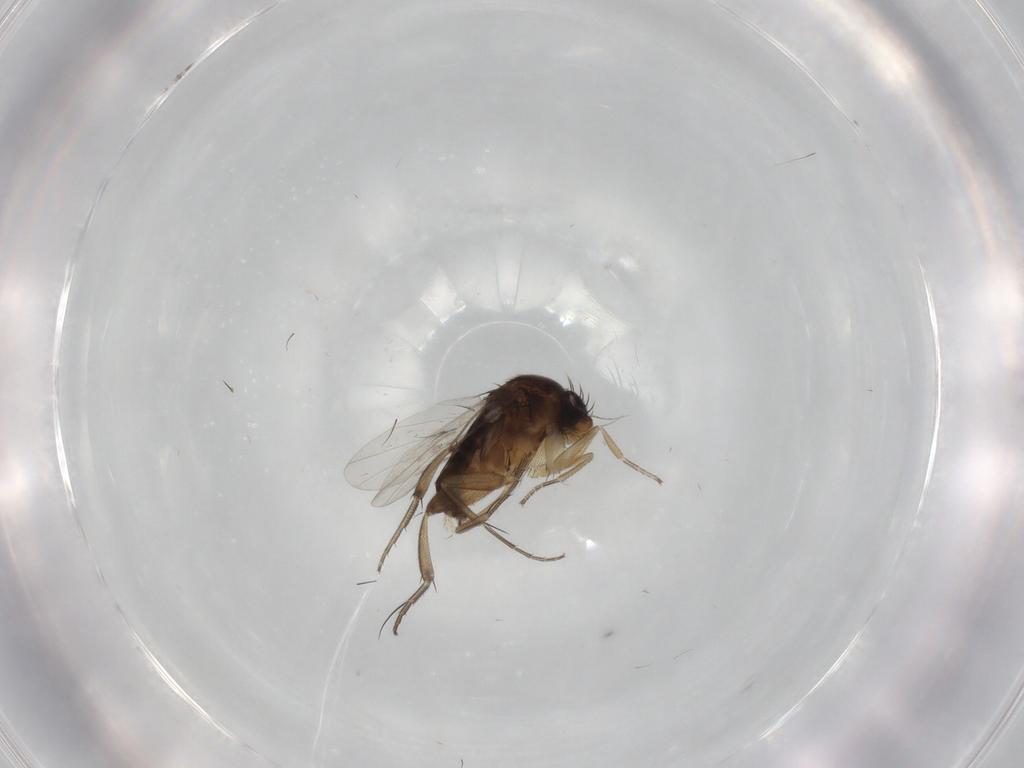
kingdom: Animalia
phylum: Arthropoda
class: Insecta
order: Diptera
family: Phoridae
